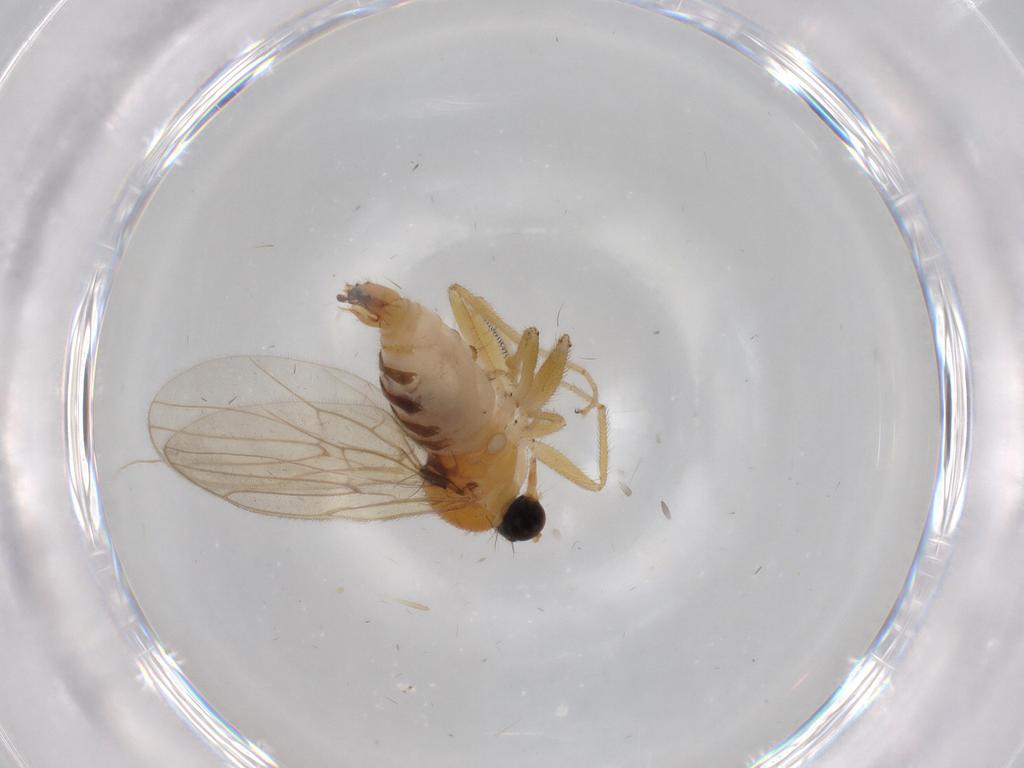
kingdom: Animalia
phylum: Arthropoda
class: Insecta
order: Diptera
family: Hybotidae
